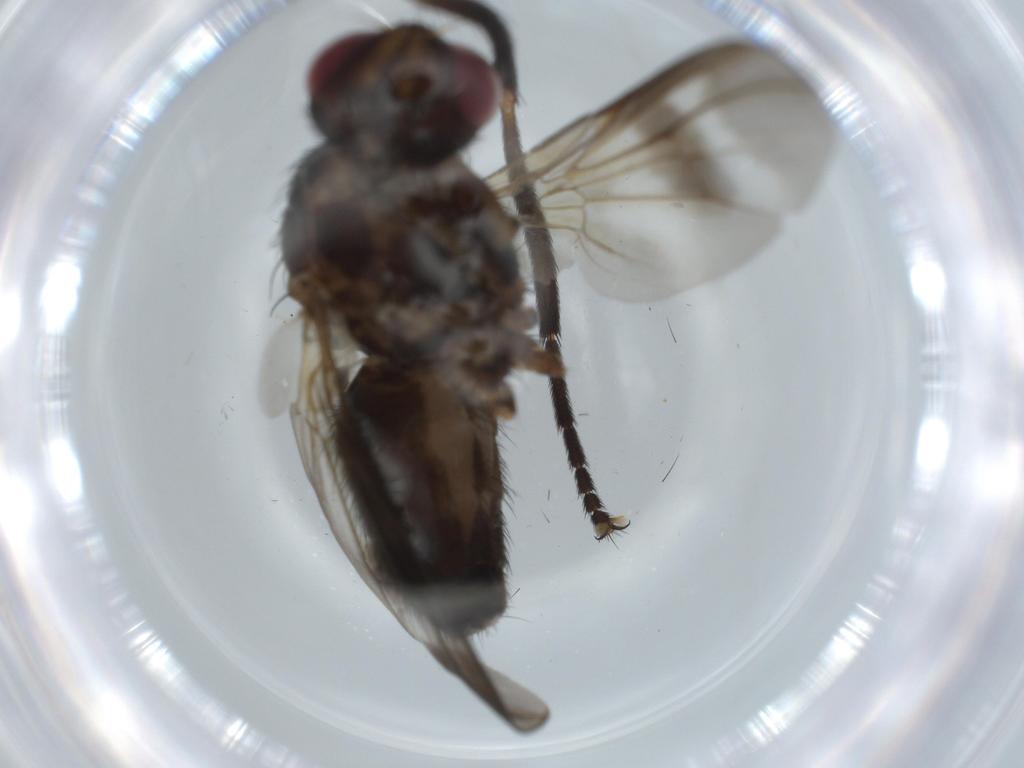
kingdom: Animalia
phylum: Arthropoda
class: Insecta
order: Diptera
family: Calliphoridae
